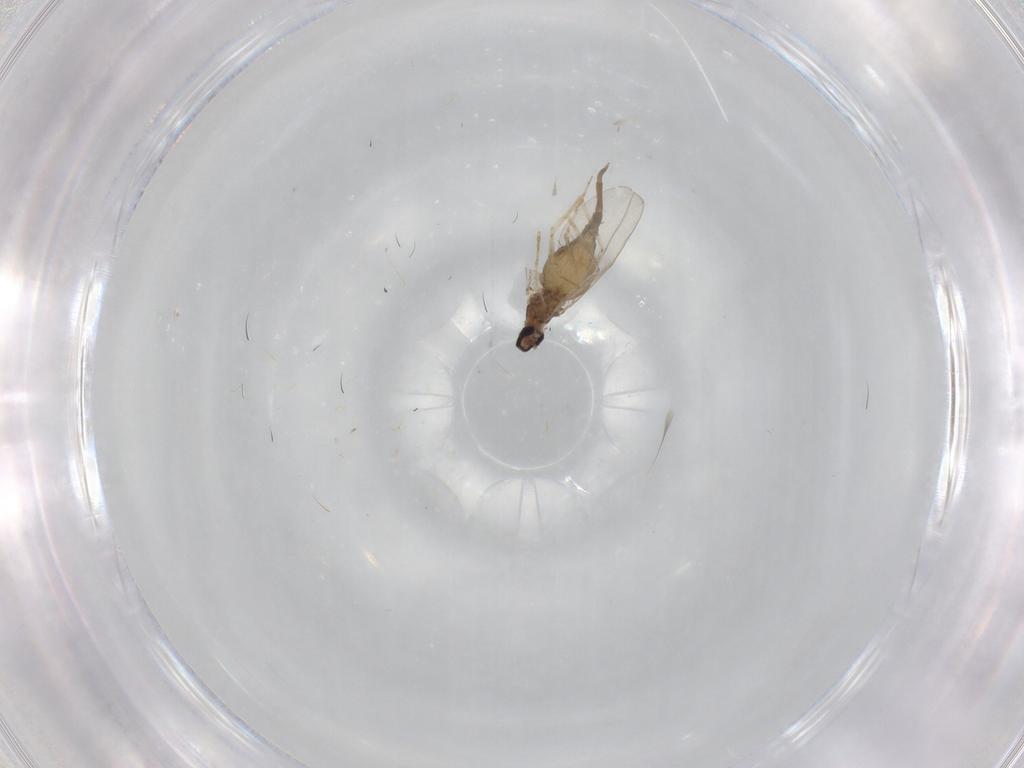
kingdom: Animalia
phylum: Arthropoda
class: Insecta
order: Diptera
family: Cecidomyiidae
